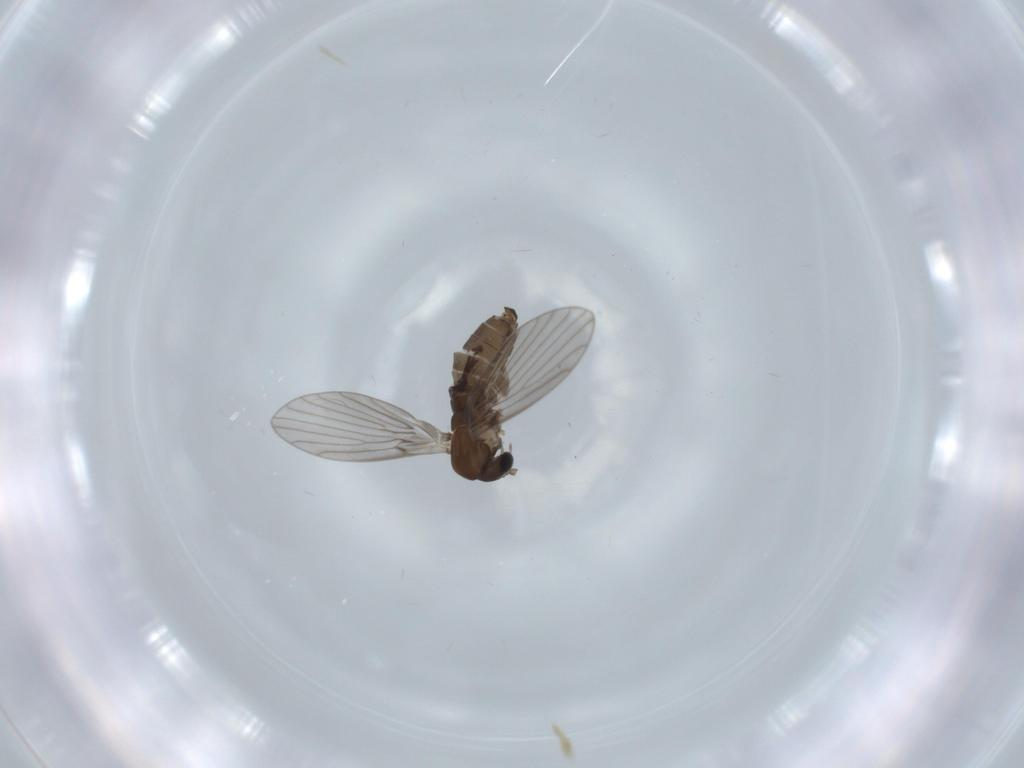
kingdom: Animalia
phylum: Arthropoda
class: Insecta
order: Diptera
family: Psychodidae
